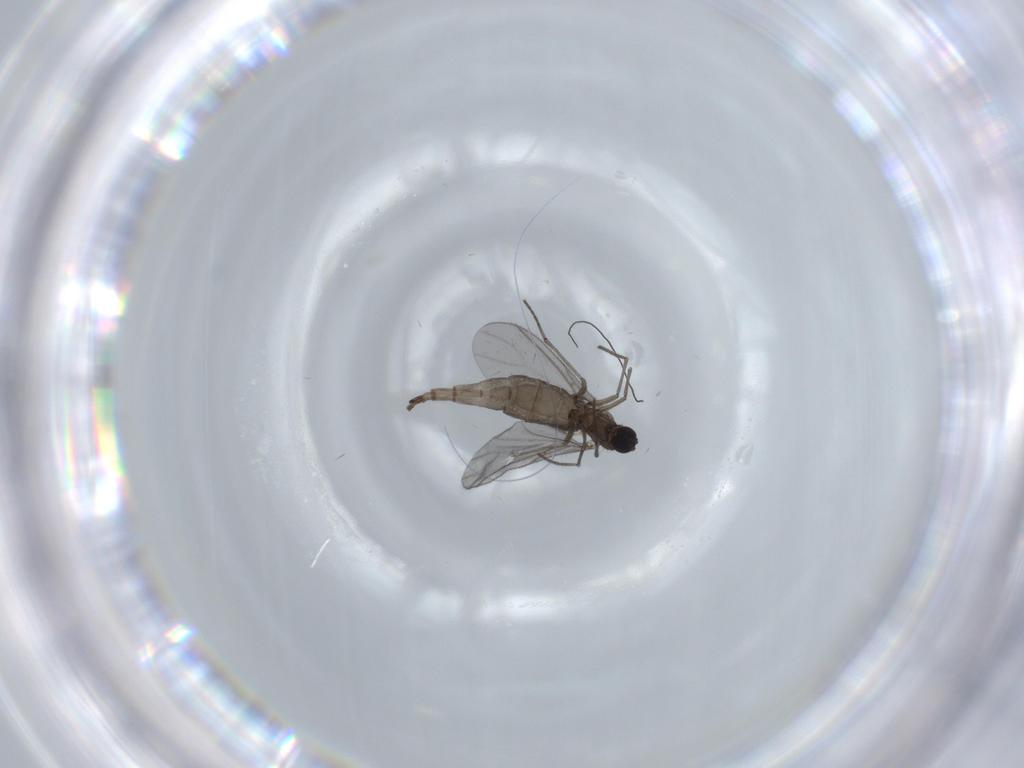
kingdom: Animalia
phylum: Arthropoda
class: Insecta
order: Diptera
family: Sciaridae
